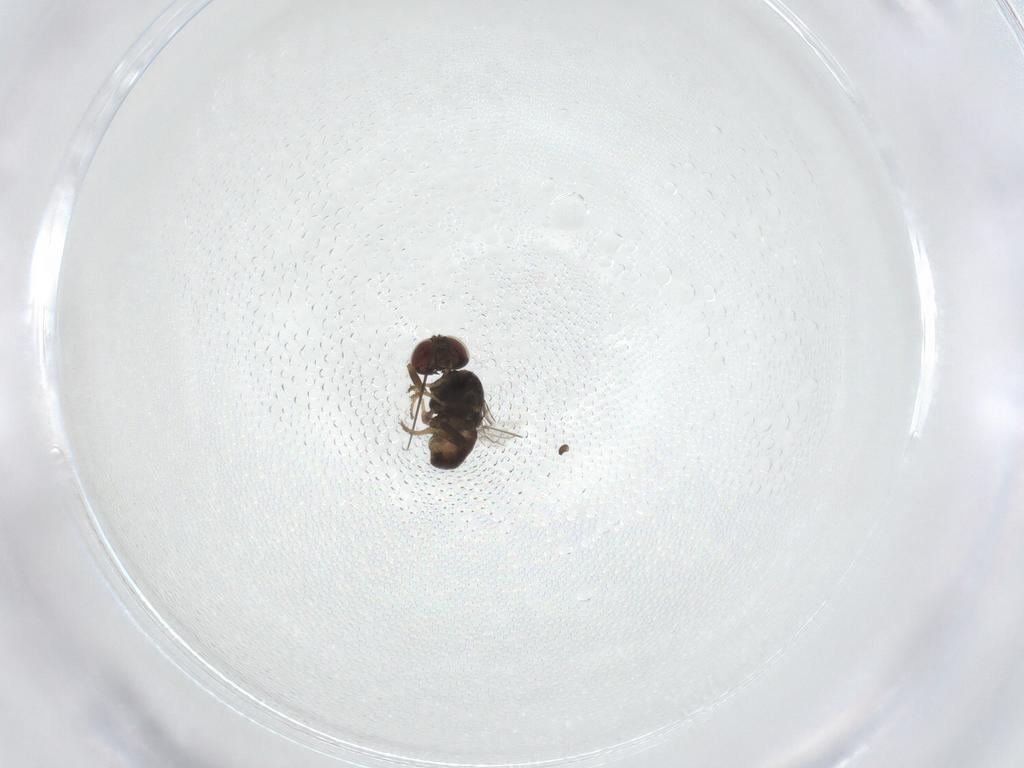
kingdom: Animalia
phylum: Arthropoda
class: Insecta
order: Diptera
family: Chloropidae
